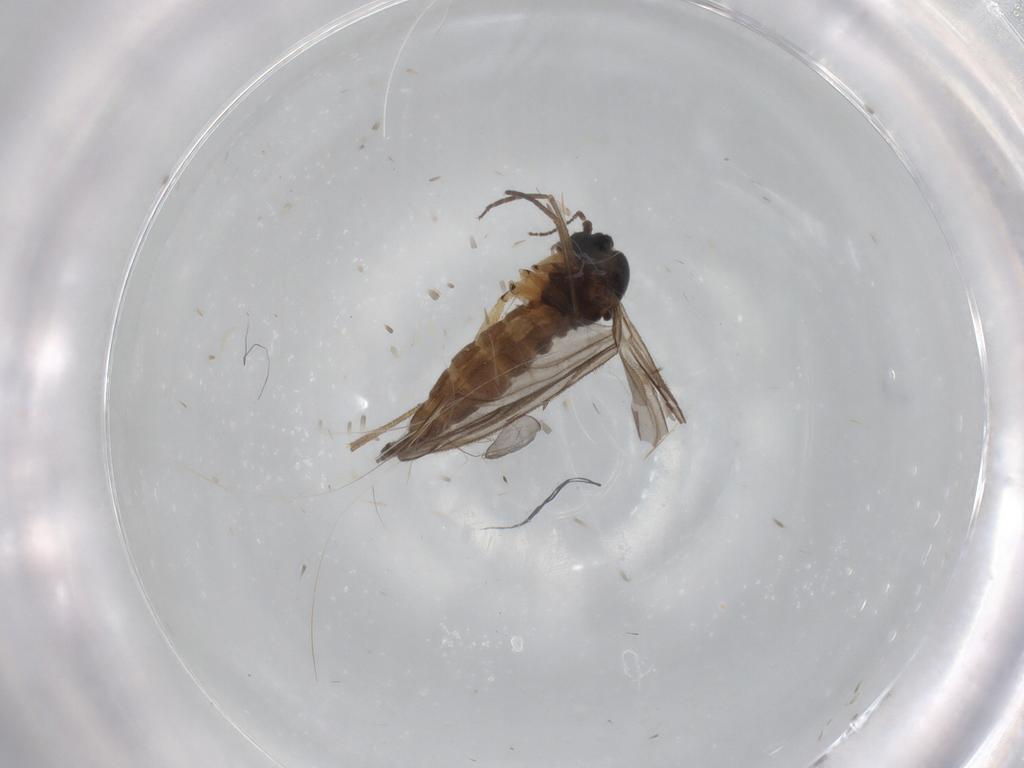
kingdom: Animalia
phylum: Arthropoda
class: Insecta
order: Diptera
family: Sciaridae
